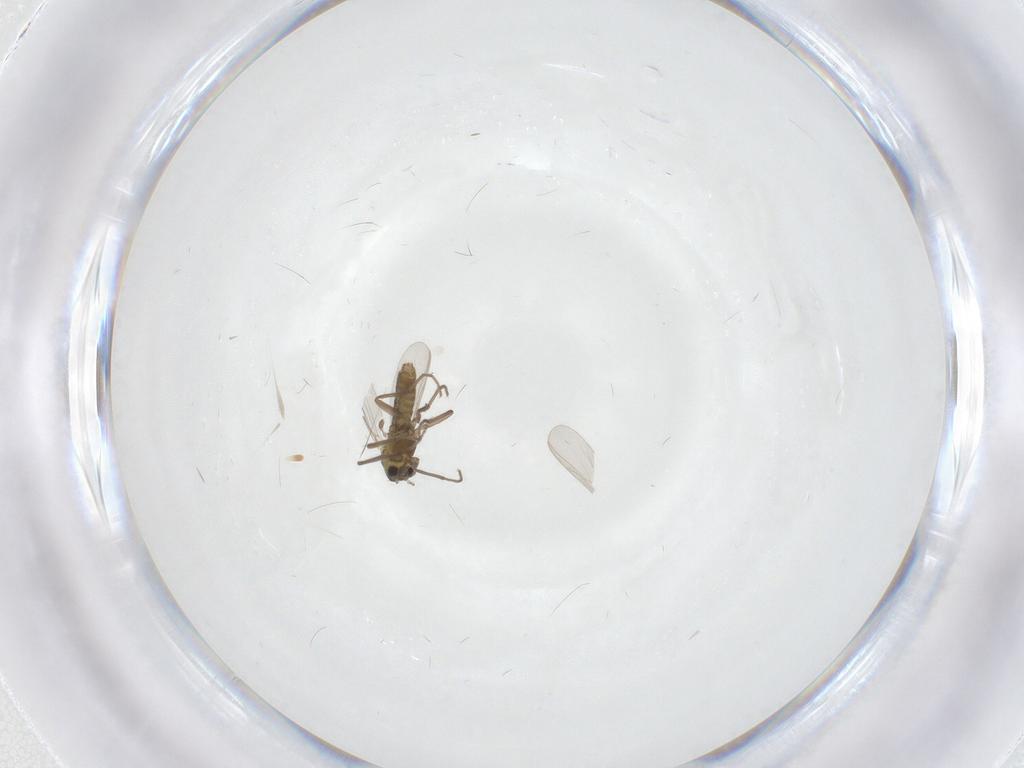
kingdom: Animalia
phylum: Arthropoda
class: Insecta
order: Diptera
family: Chironomidae
